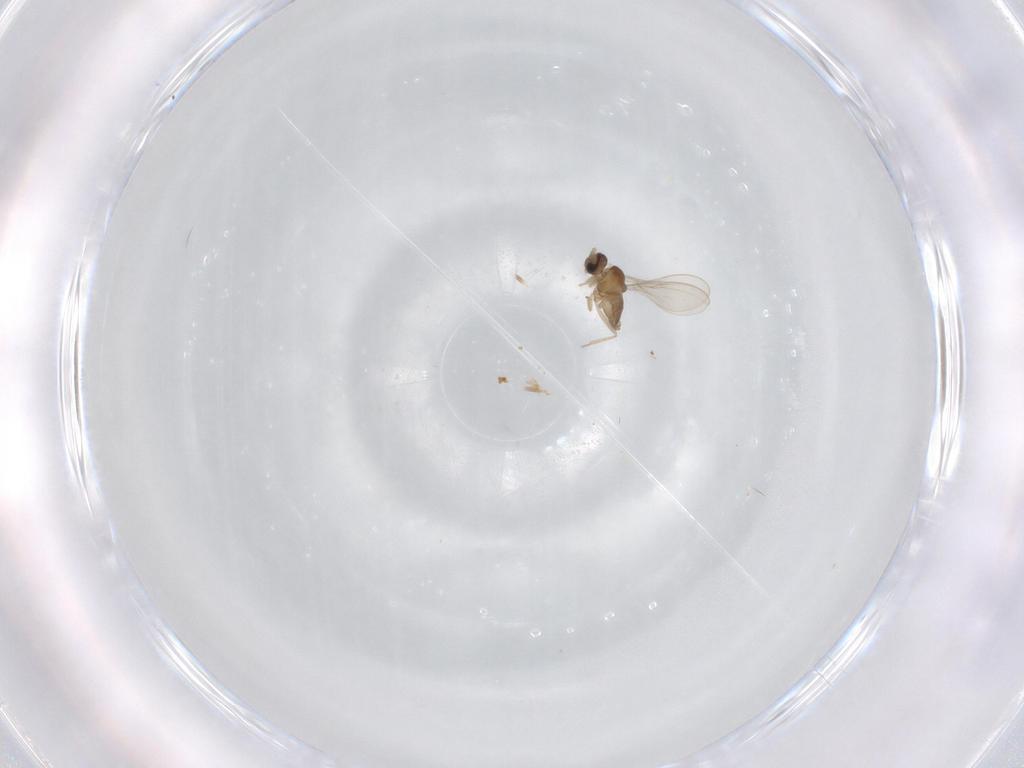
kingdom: Animalia
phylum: Arthropoda
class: Insecta
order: Diptera
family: Cecidomyiidae
